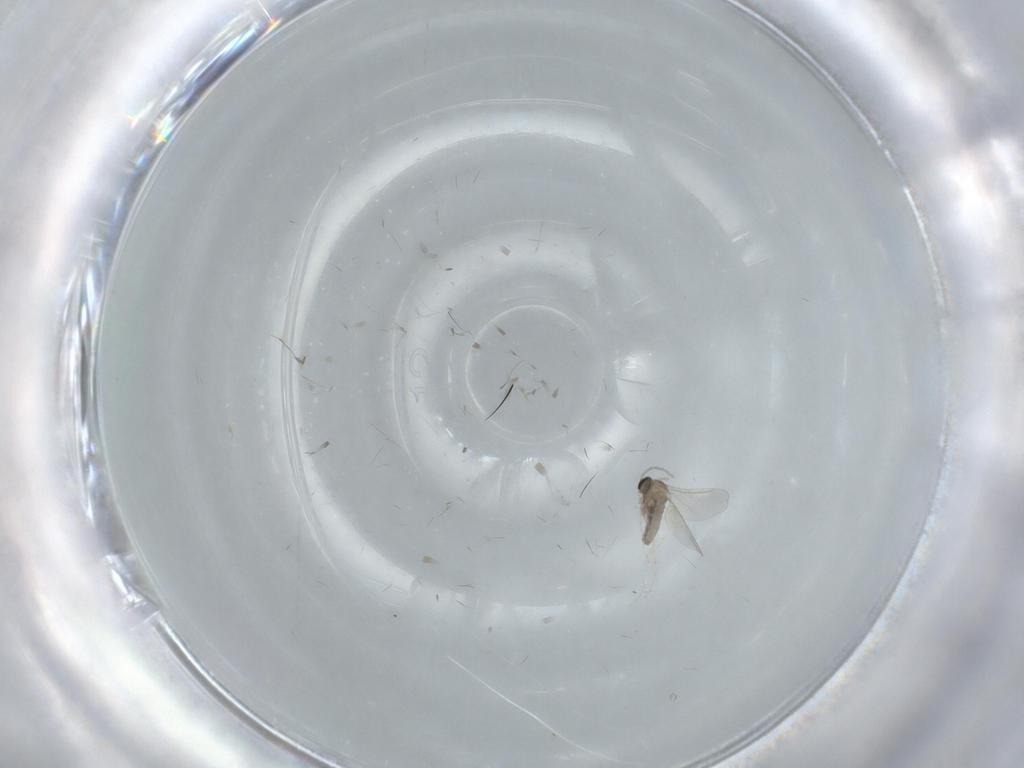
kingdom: Animalia
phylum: Arthropoda
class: Insecta
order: Diptera
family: Cecidomyiidae
